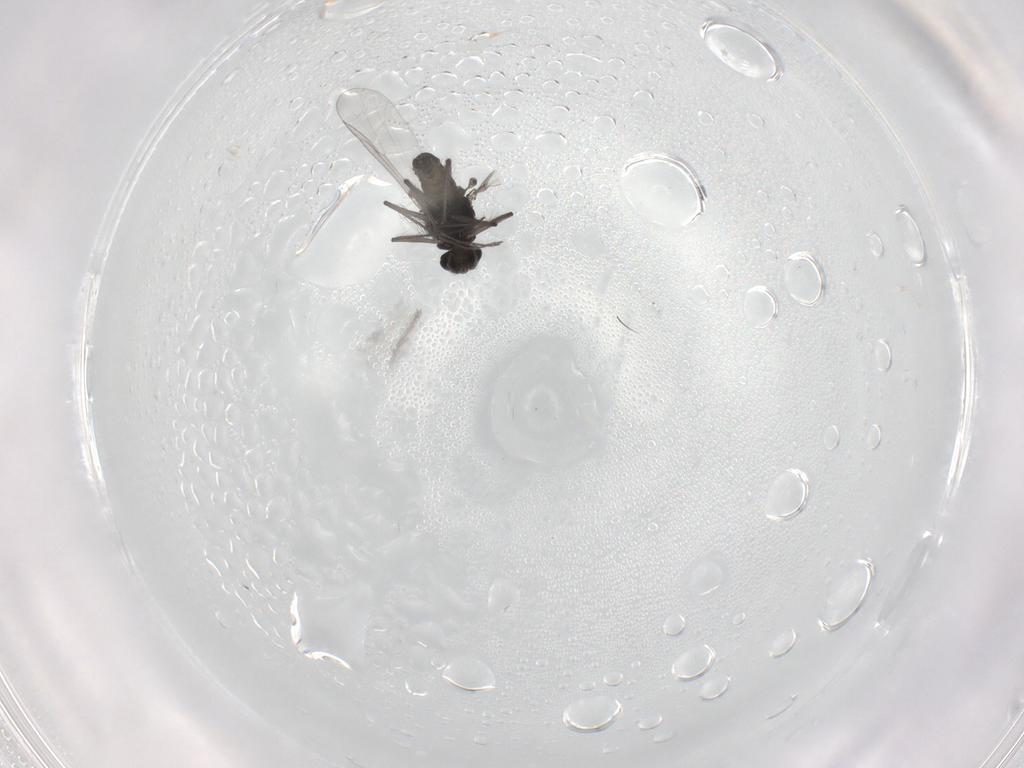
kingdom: Animalia
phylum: Arthropoda
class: Insecta
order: Diptera
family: Chironomidae
